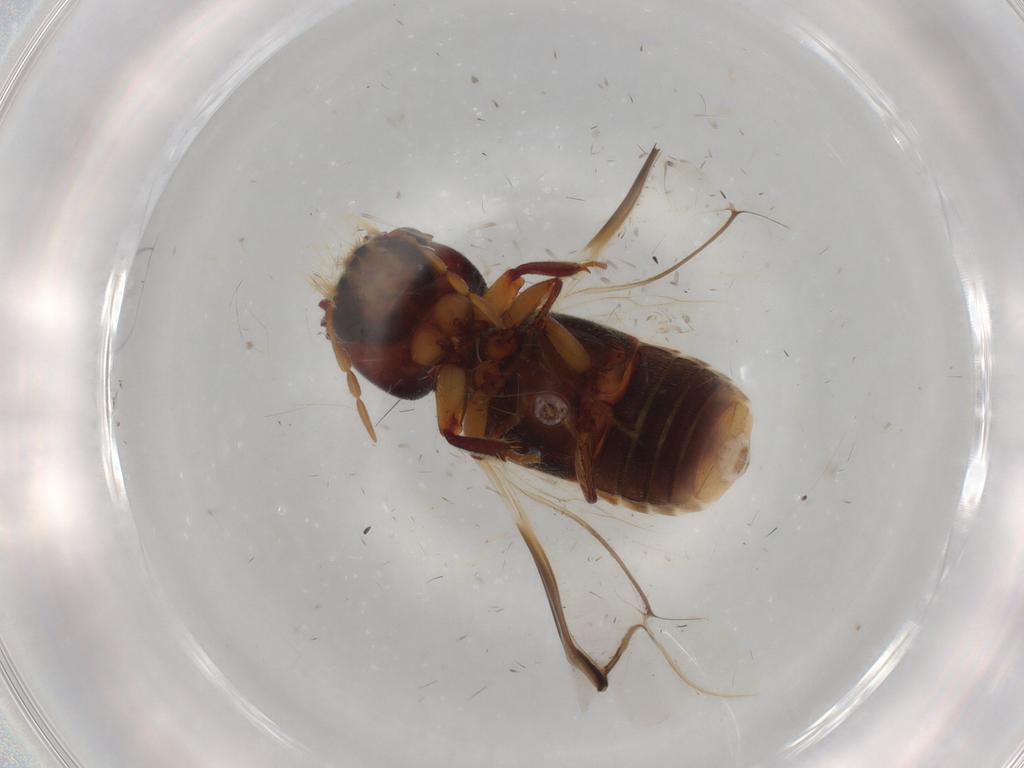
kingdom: Animalia
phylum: Arthropoda
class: Insecta
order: Coleoptera
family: Bostrichidae
